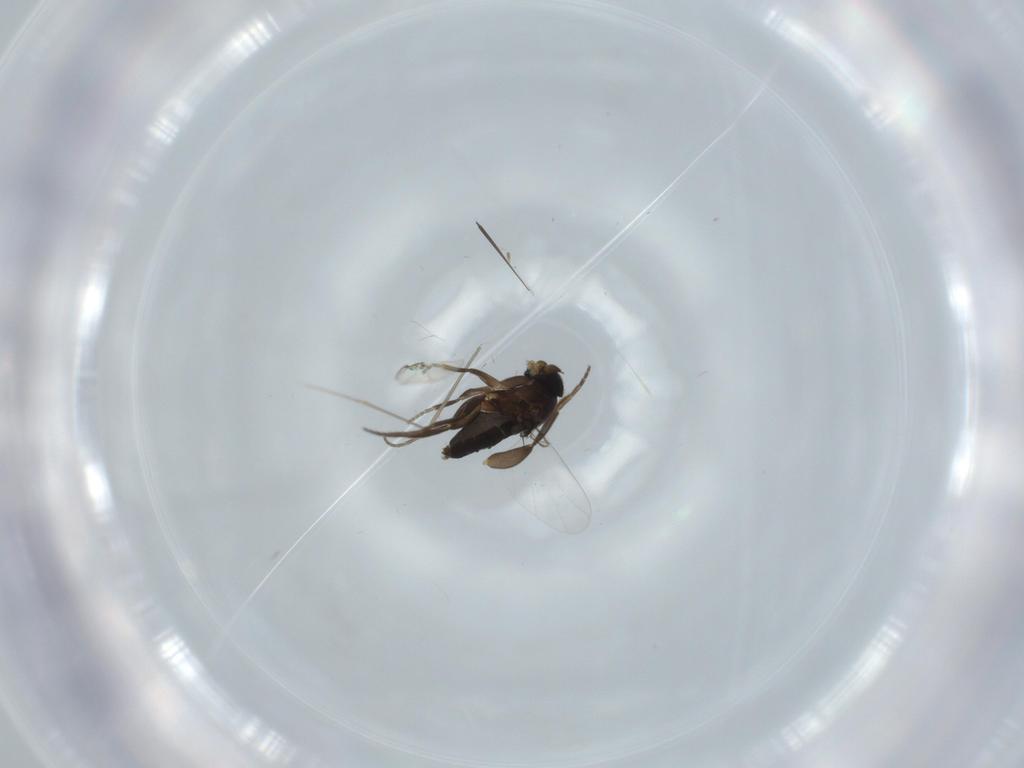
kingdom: Animalia
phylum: Arthropoda
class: Insecta
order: Diptera
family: Phoridae
